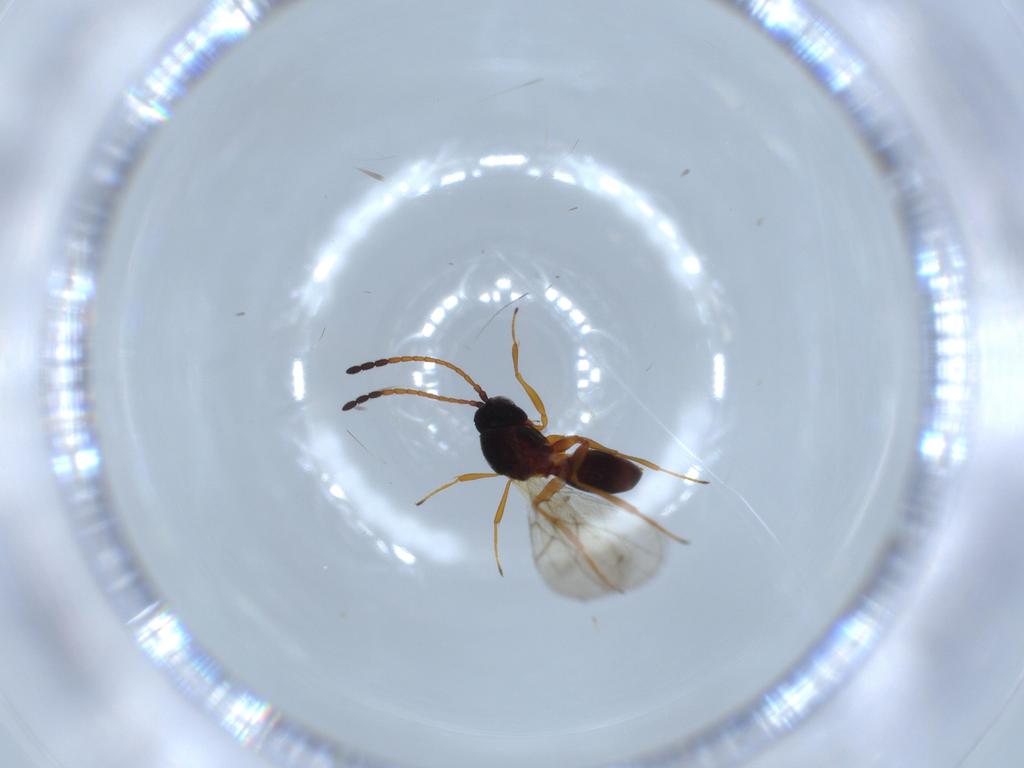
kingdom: Animalia
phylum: Arthropoda
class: Insecta
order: Hymenoptera
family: Figitidae
